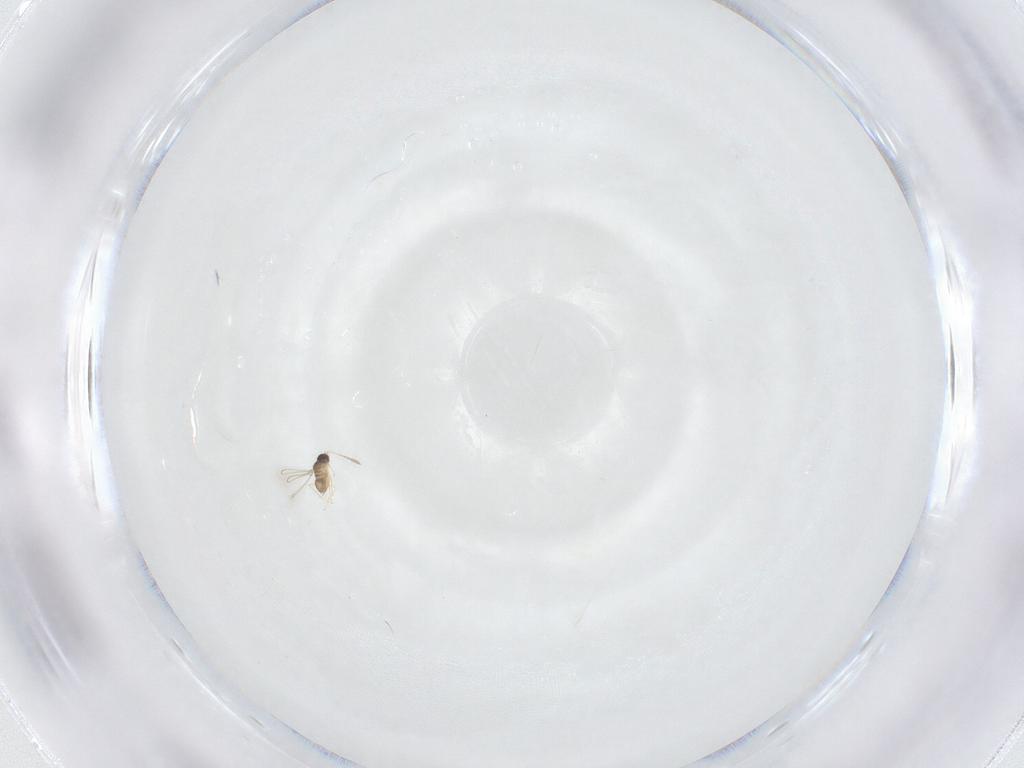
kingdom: Animalia
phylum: Arthropoda
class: Insecta
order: Hymenoptera
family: Mymaridae
